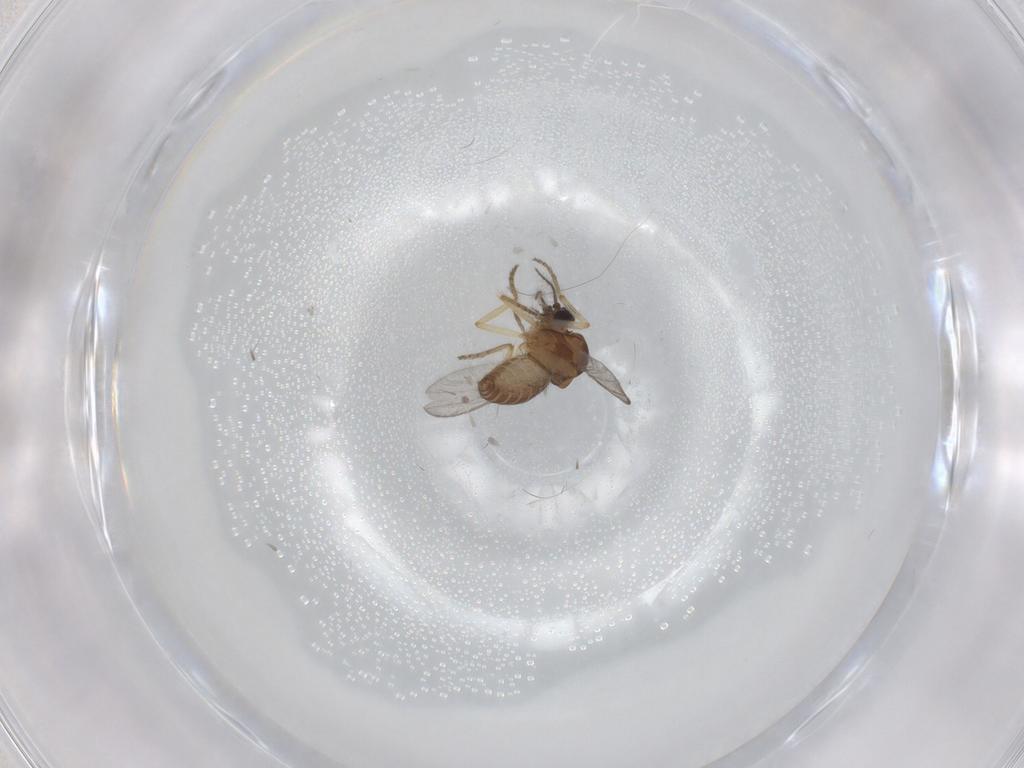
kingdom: Animalia
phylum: Arthropoda
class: Insecta
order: Diptera
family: Ceratopogonidae
